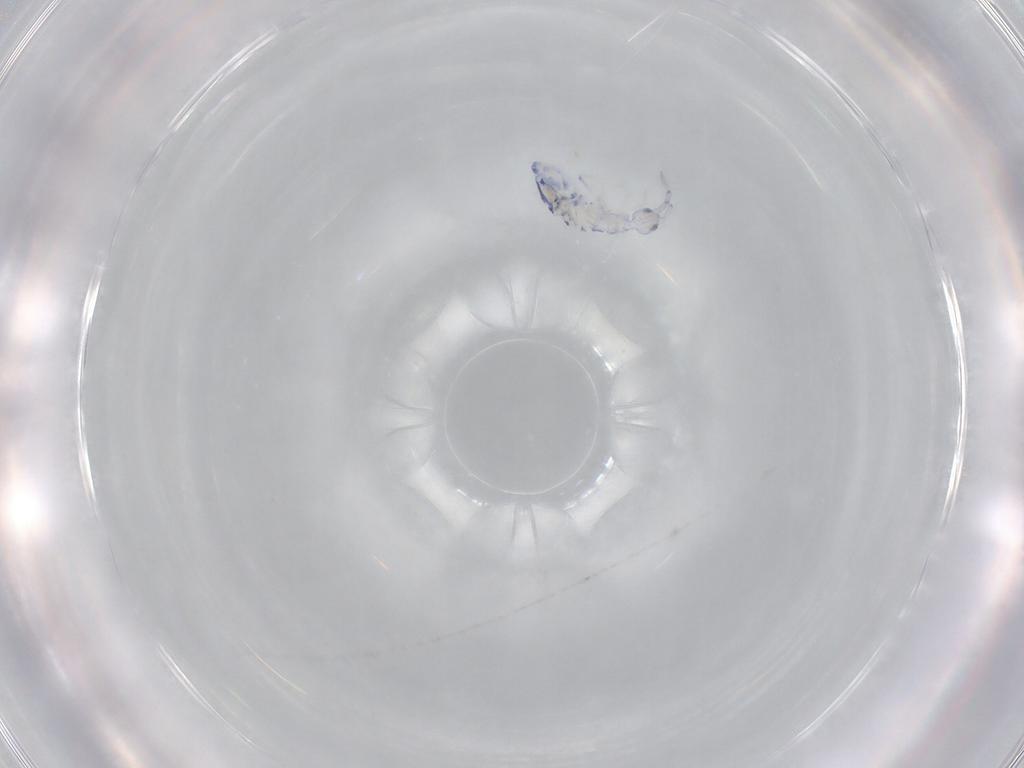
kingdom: Animalia
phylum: Arthropoda
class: Collembola
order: Entomobryomorpha
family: Entomobryidae
